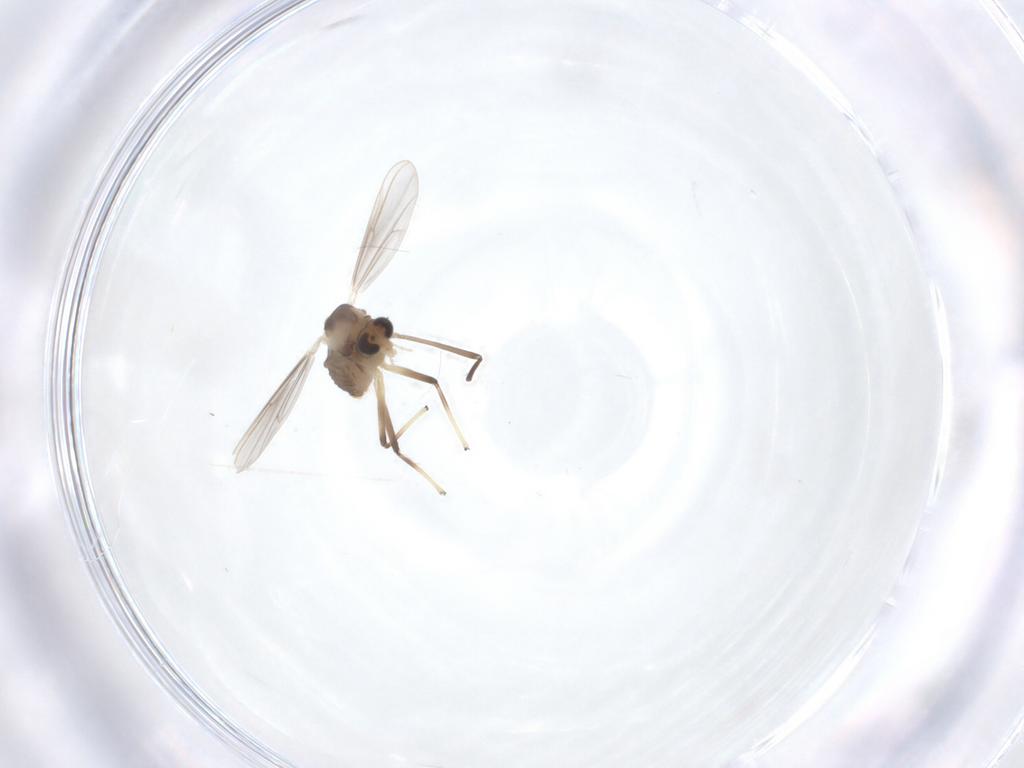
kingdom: Animalia
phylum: Arthropoda
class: Insecta
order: Diptera
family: Chironomidae
